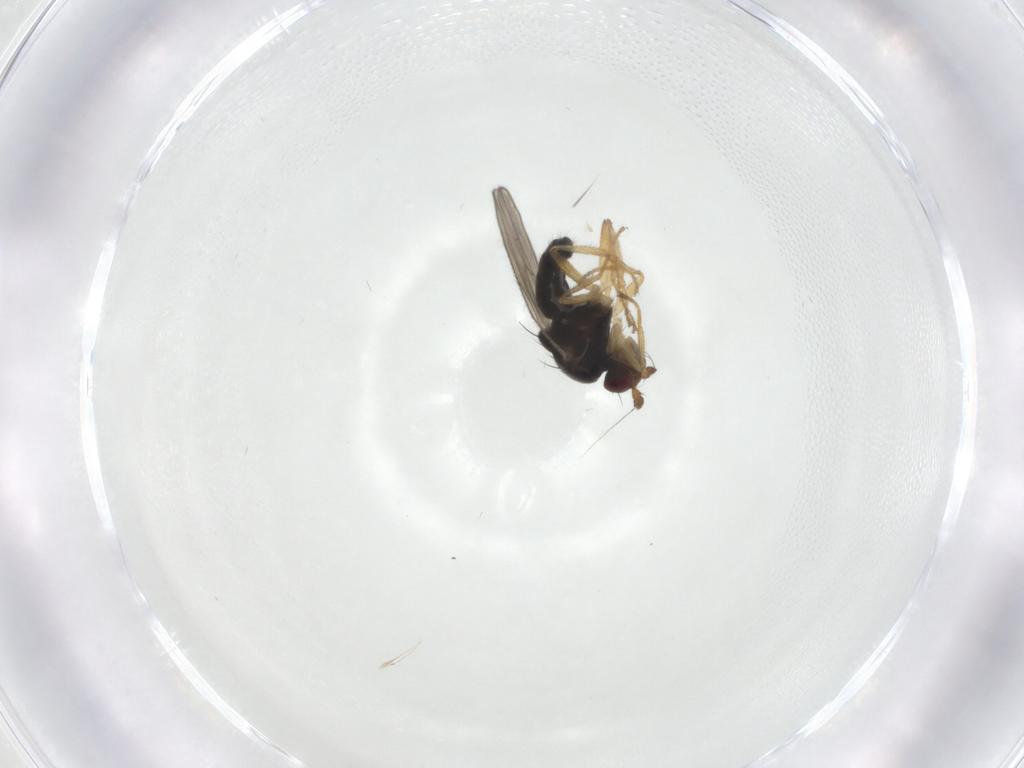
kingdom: Animalia
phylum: Arthropoda
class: Insecta
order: Diptera
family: Sphaeroceridae
